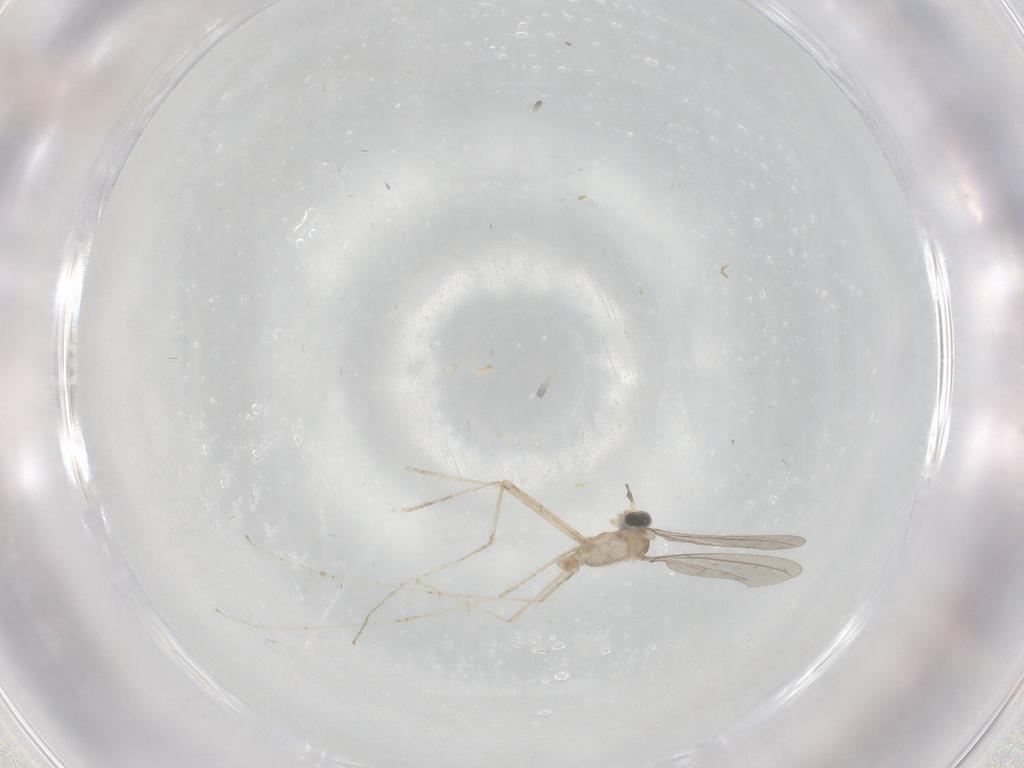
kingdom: Animalia
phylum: Arthropoda
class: Insecta
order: Diptera
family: Cecidomyiidae
